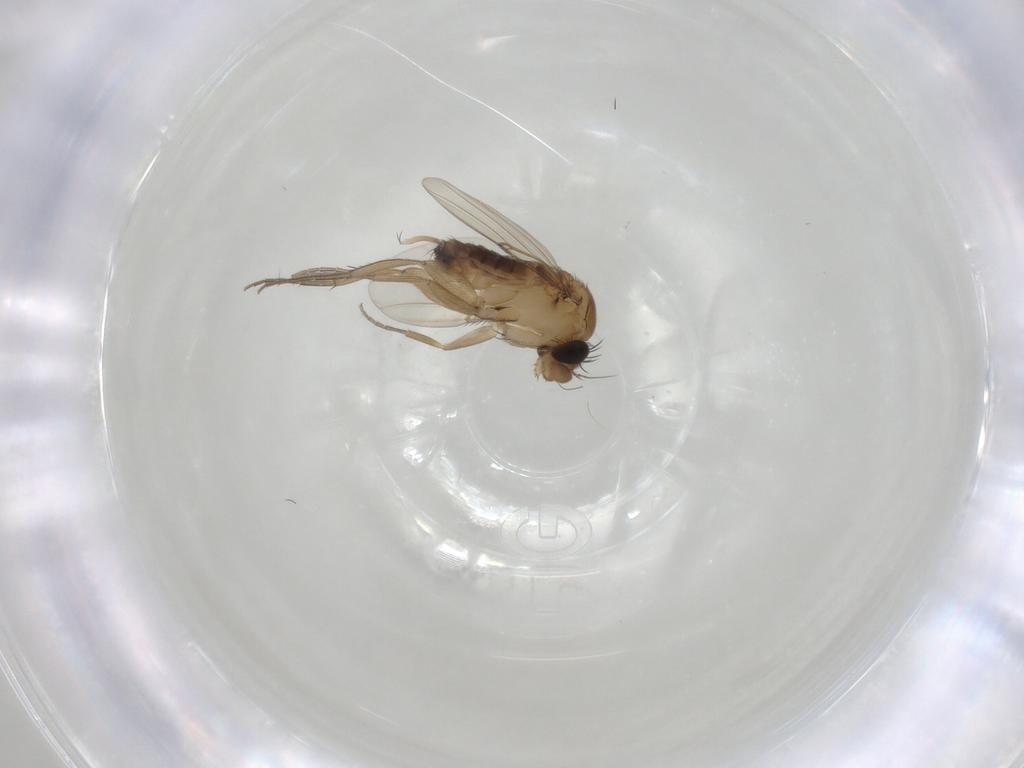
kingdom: Animalia
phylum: Arthropoda
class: Insecta
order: Diptera
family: Phoridae
